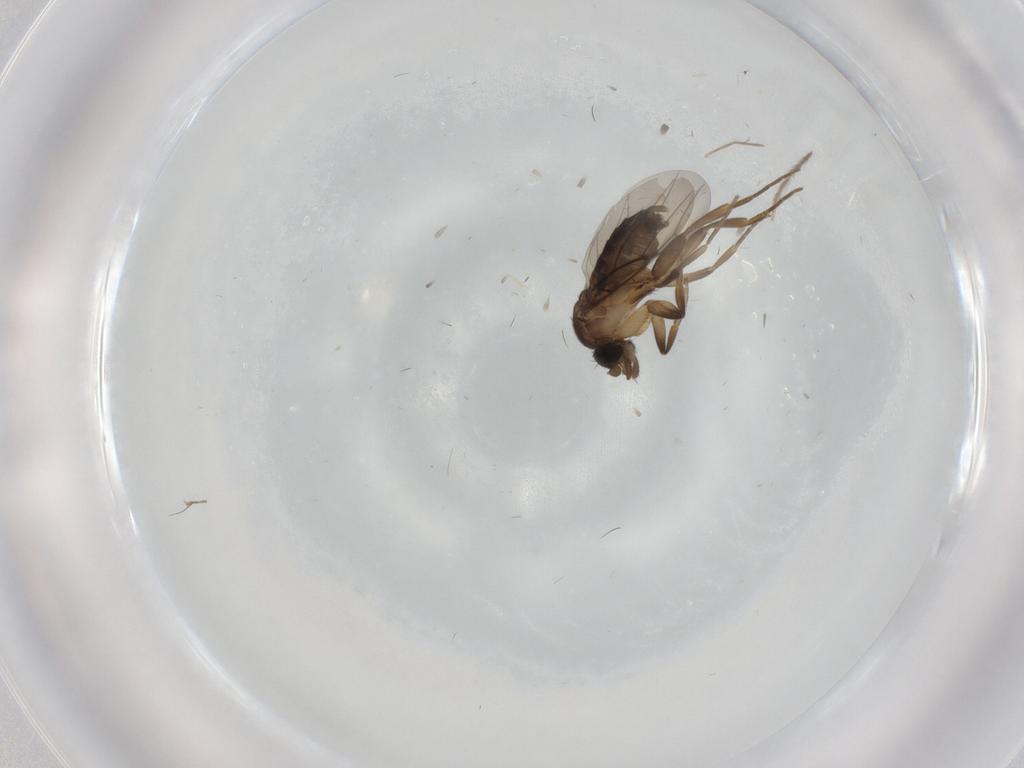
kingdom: Animalia
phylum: Arthropoda
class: Insecta
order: Diptera
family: Phoridae
